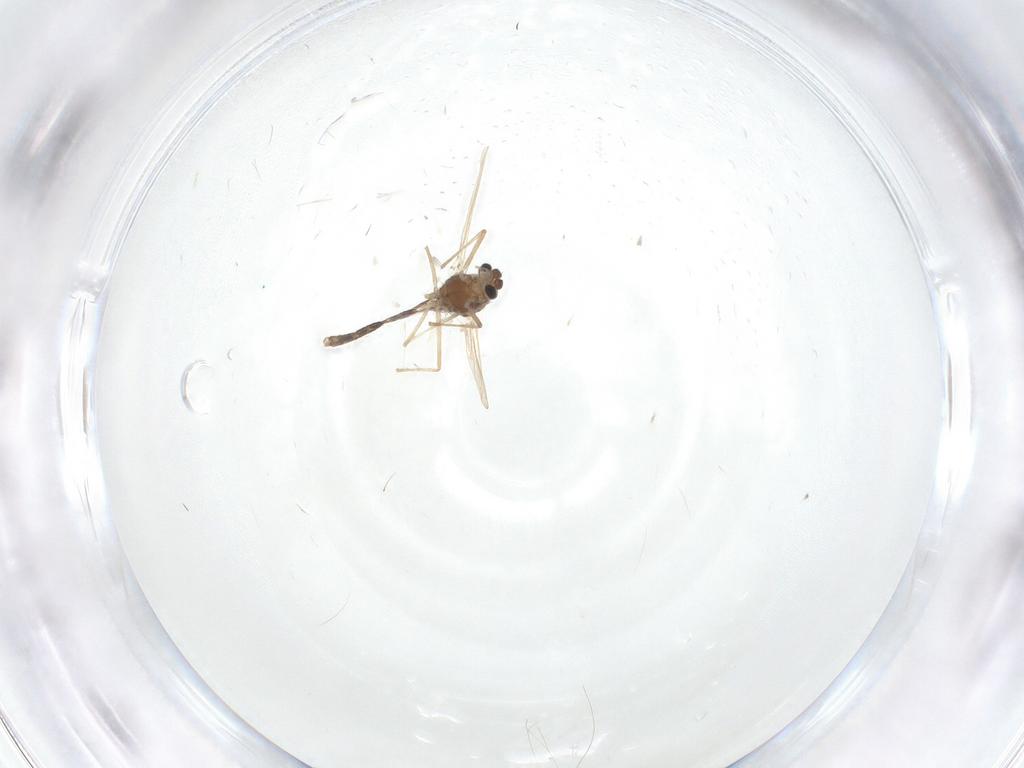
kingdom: Animalia
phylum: Arthropoda
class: Insecta
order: Diptera
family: Chironomidae
